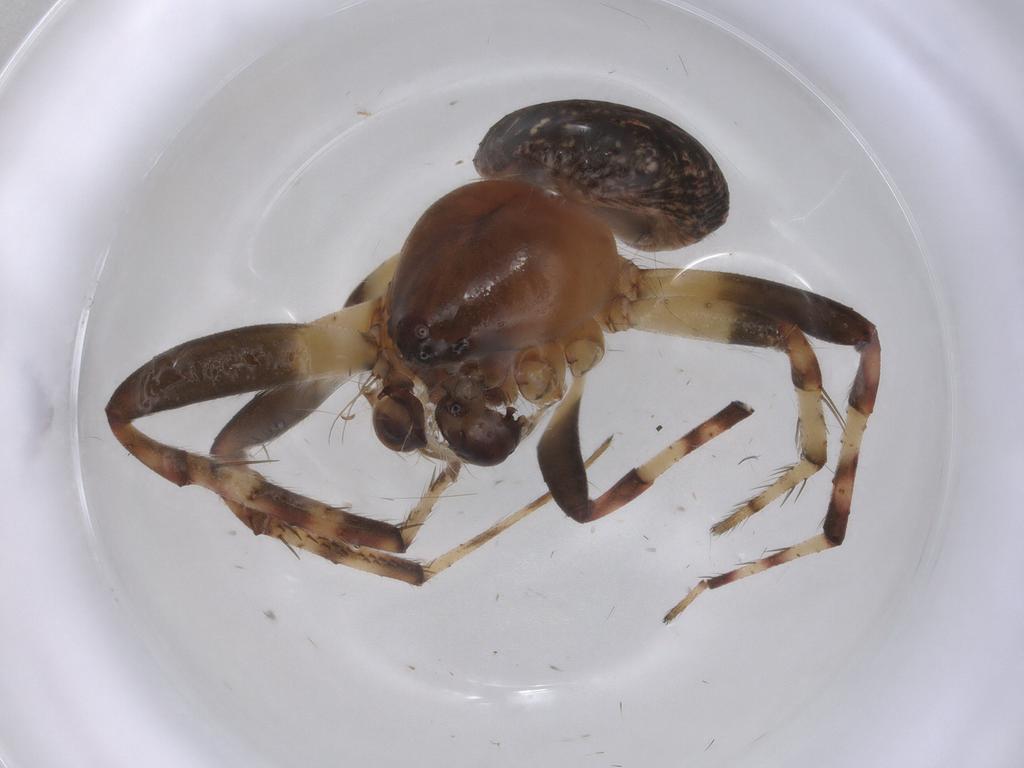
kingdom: Animalia
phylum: Arthropoda
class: Arachnida
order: Araneae
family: Araneidae
